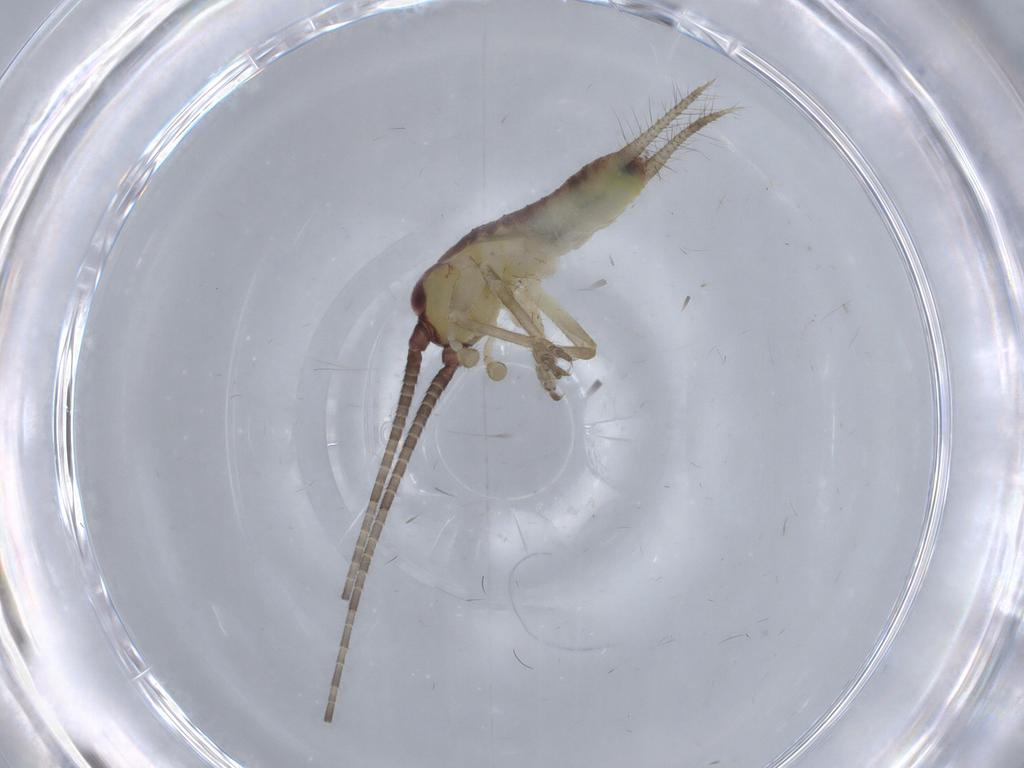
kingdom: Animalia
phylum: Arthropoda
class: Insecta
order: Orthoptera
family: Gryllidae
